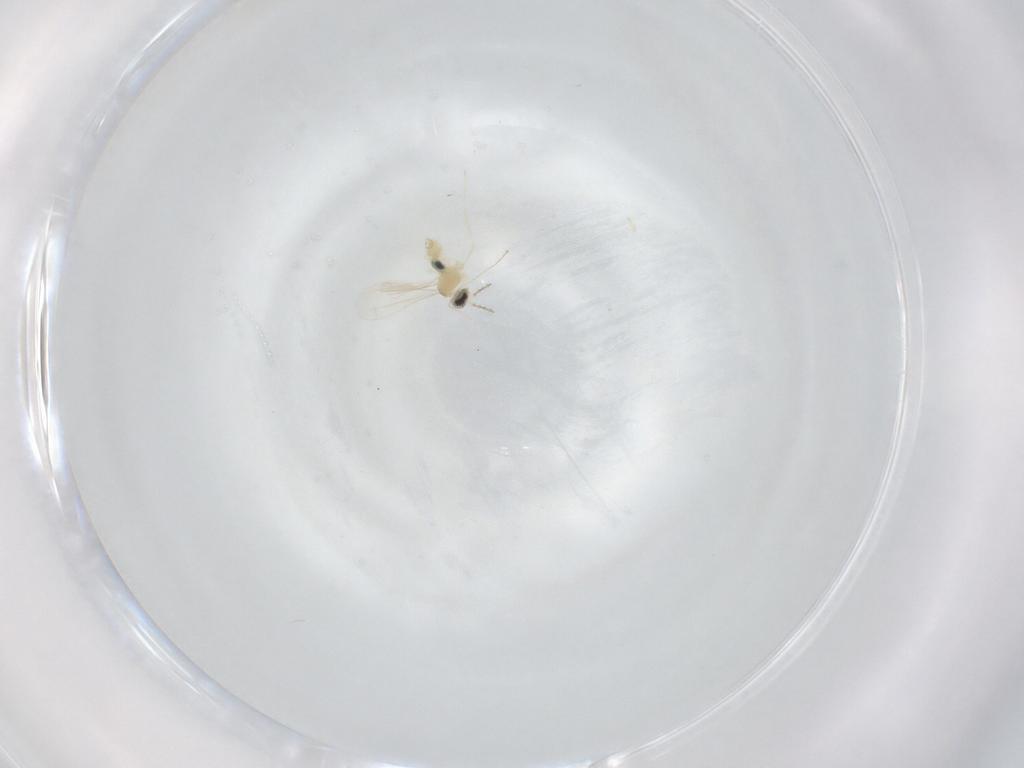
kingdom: Animalia
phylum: Arthropoda
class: Insecta
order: Diptera
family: Cecidomyiidae
